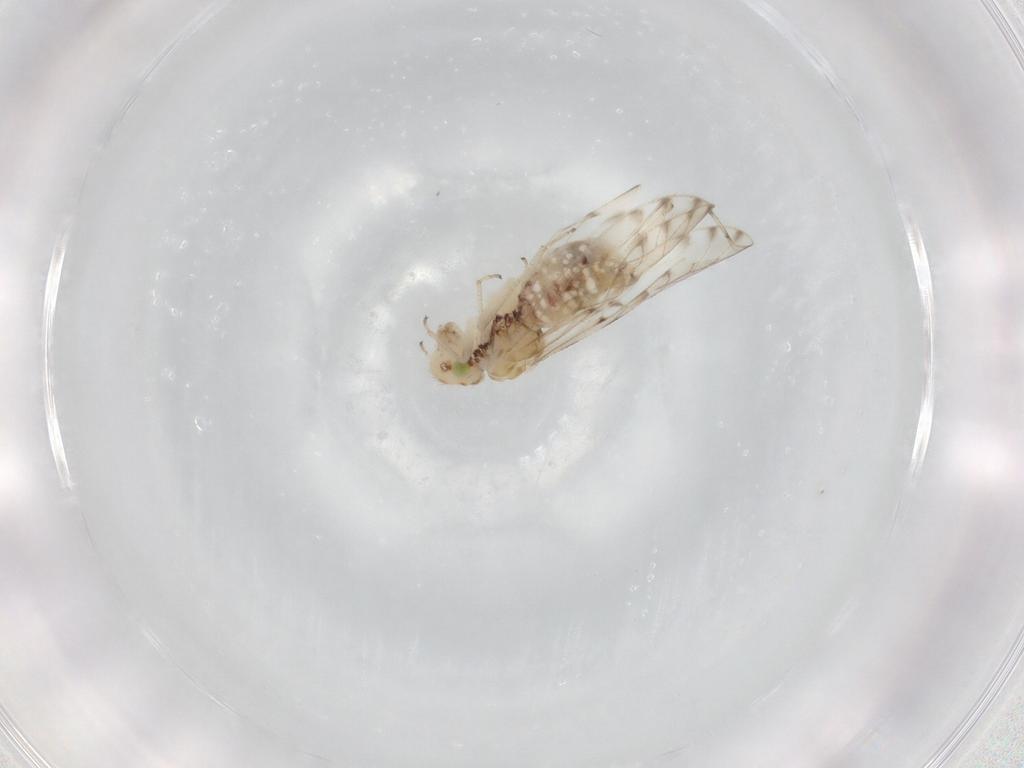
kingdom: Animalia
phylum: Arthropoda
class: Insecta
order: Psocodea
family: Ectopsocidae
